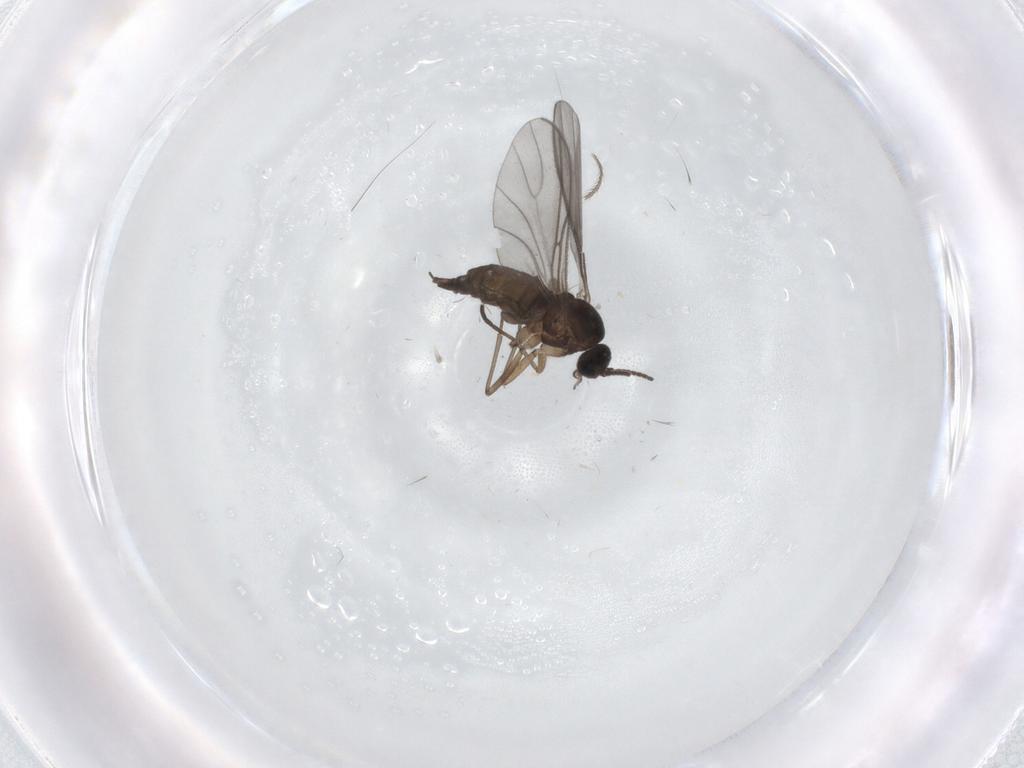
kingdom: Animalia
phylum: Arthropoda
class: Insecta
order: Diptera
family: Sciaridae
